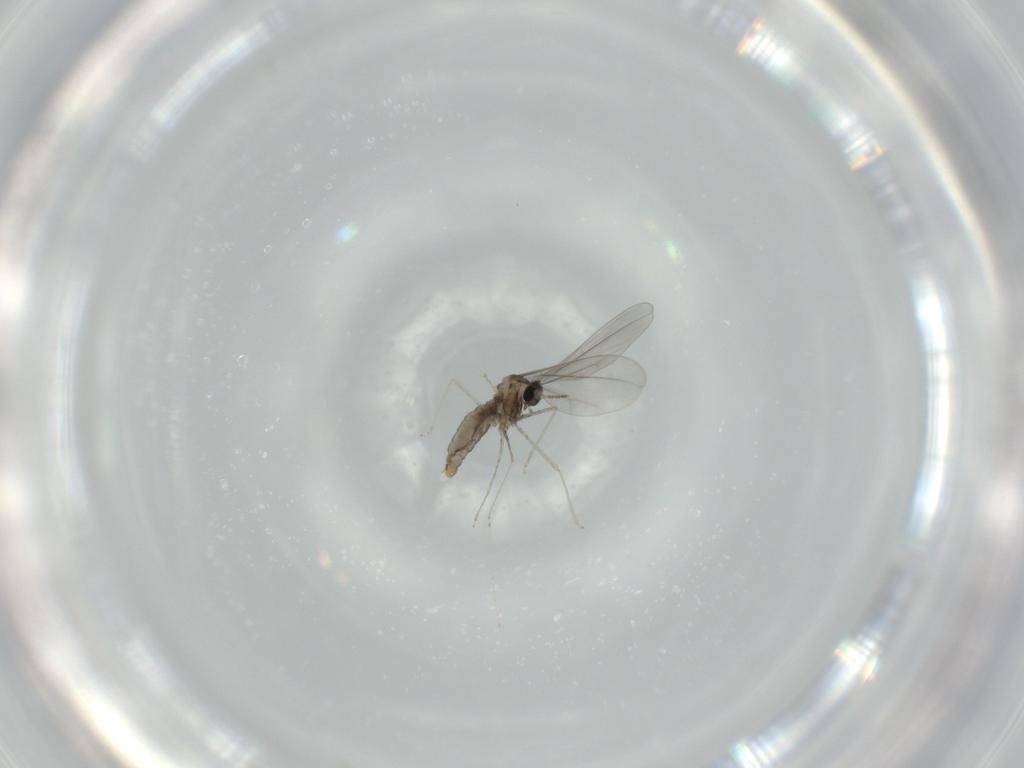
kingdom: Animalia
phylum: Arthropoda
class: Insecta
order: Diptera
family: Cecidomyiidae
